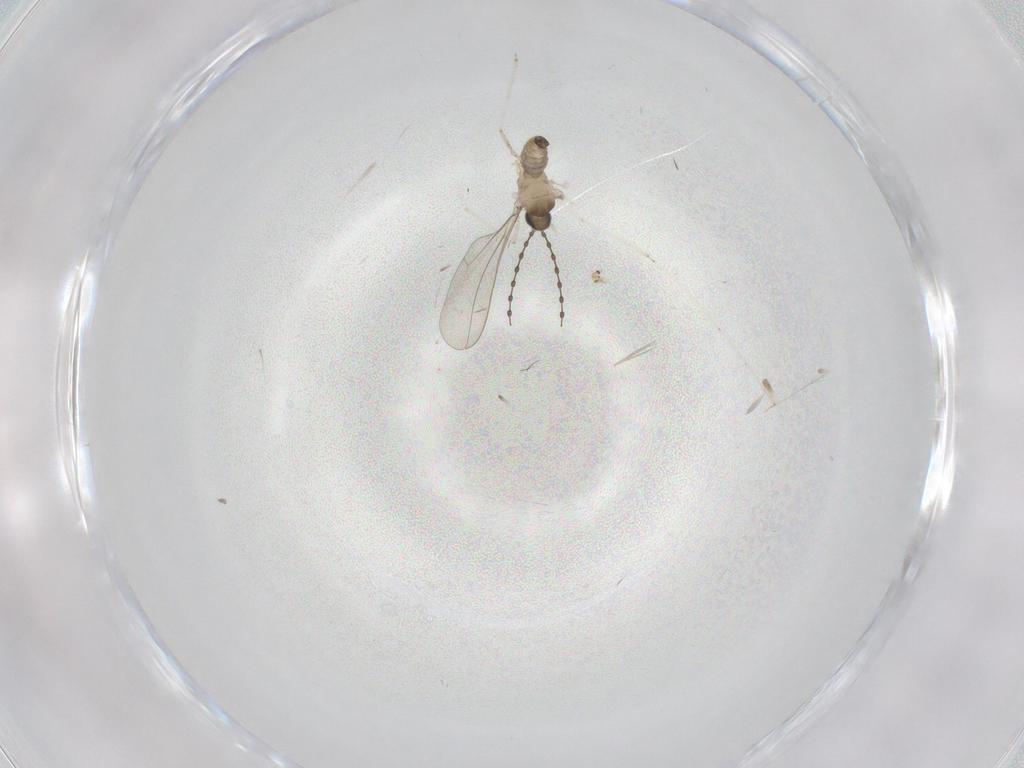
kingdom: Animalia
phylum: Arthropoda
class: Insecta
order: Diptera
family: Cecidomyiidae
